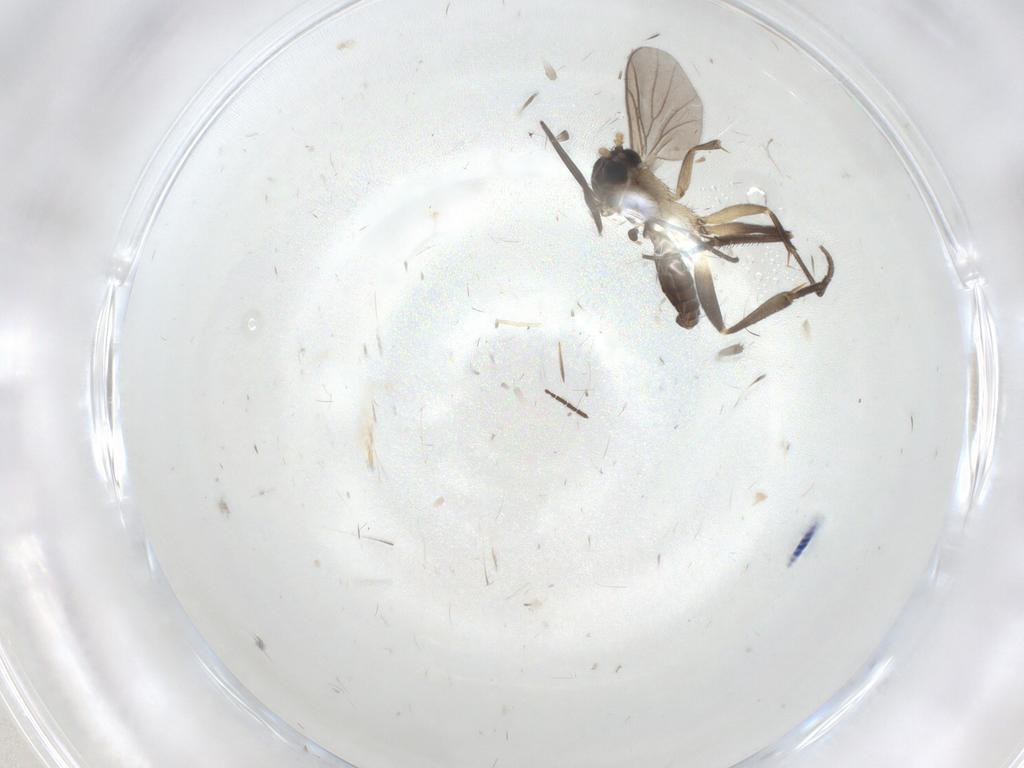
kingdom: Animalia
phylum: Arthropoda
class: Insecta
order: Diptera
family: Sciaridae
